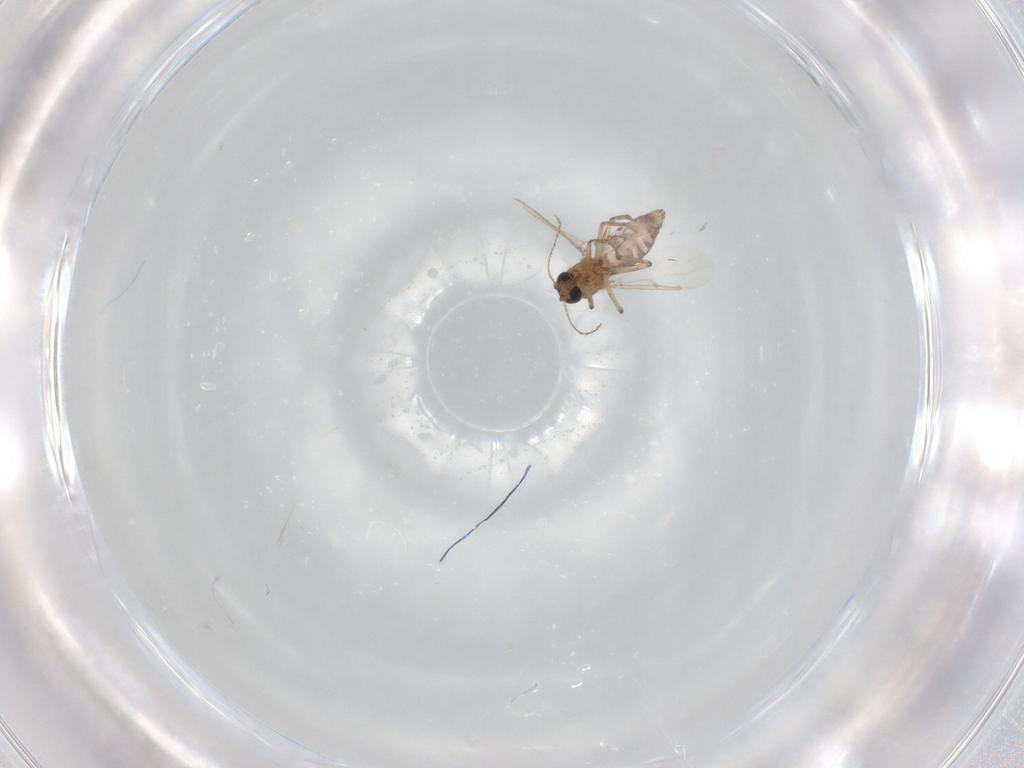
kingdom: Animalia
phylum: Arthropoda
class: Insecta
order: Diptera
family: Ceratopogonidae
